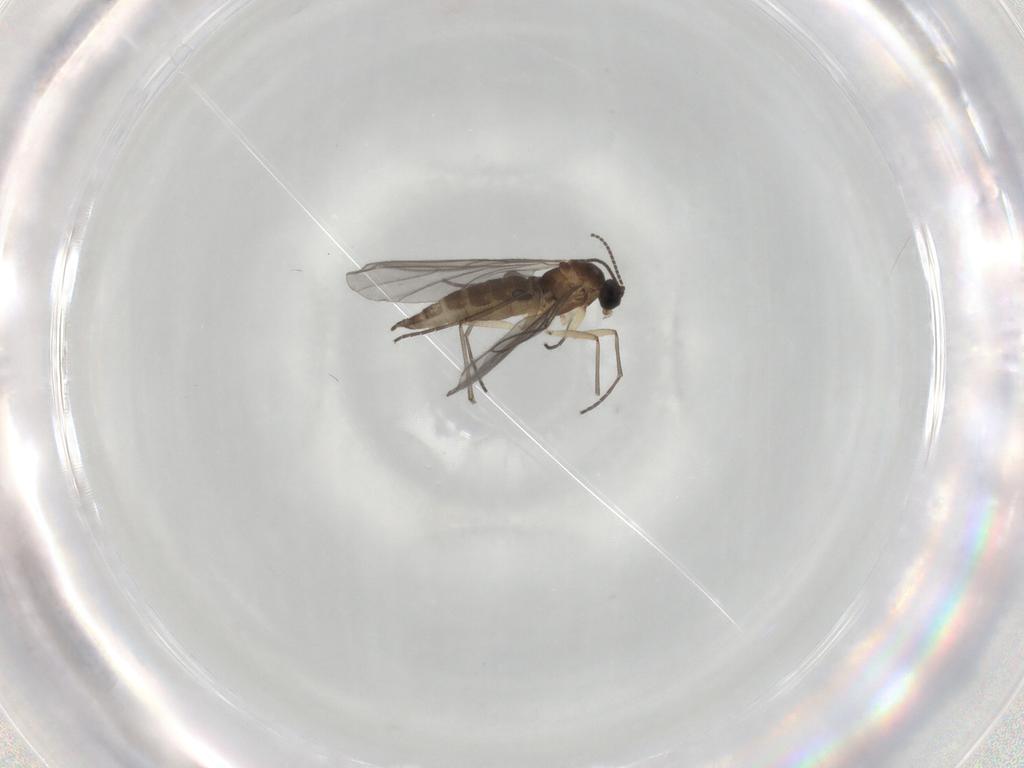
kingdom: Animalia
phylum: Arthropoda
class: Insecta
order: Diptera
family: Sciaridae
